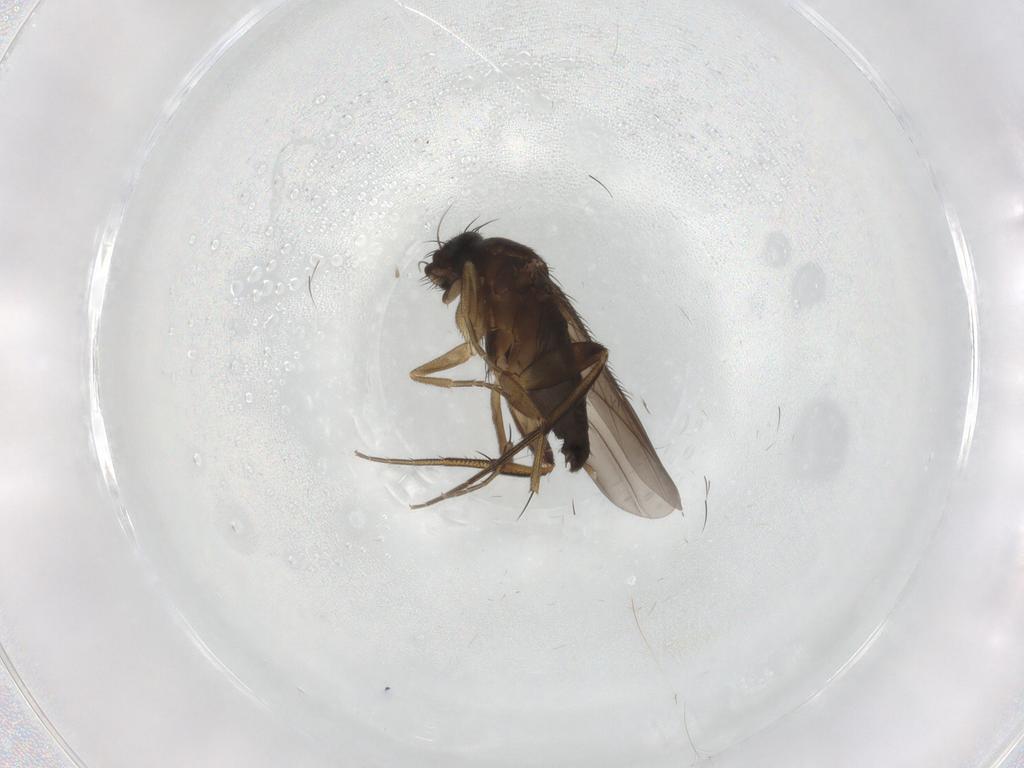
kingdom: Animalia
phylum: Arthropoda
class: Insecta
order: Diptera
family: Phoridae
